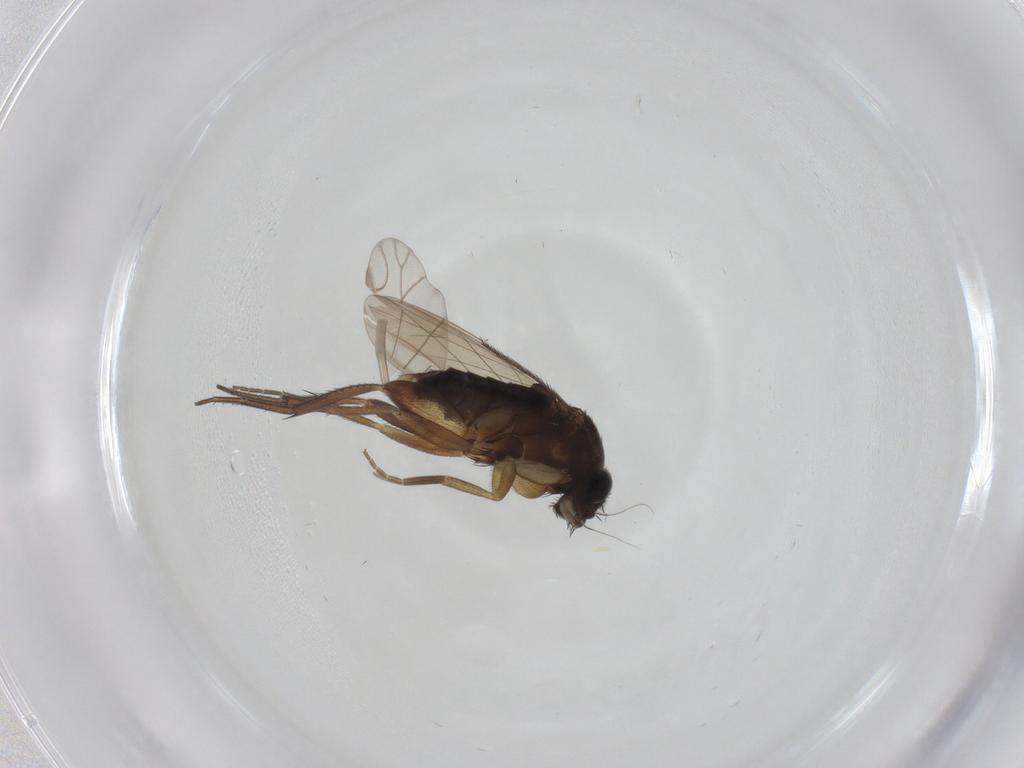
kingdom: Animalia
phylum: Arthropoda
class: Insecta
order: Diptera
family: Phoridae
